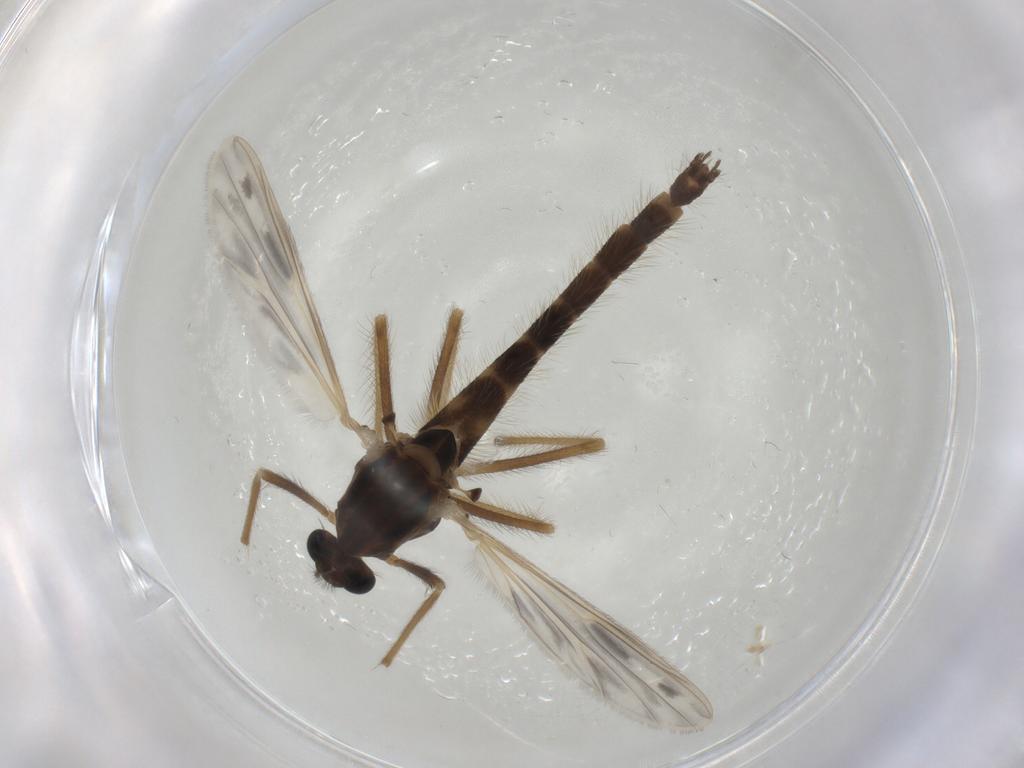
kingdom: Animalia
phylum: Arthropoda
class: Insecta
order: Diptera
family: Chironomidae
